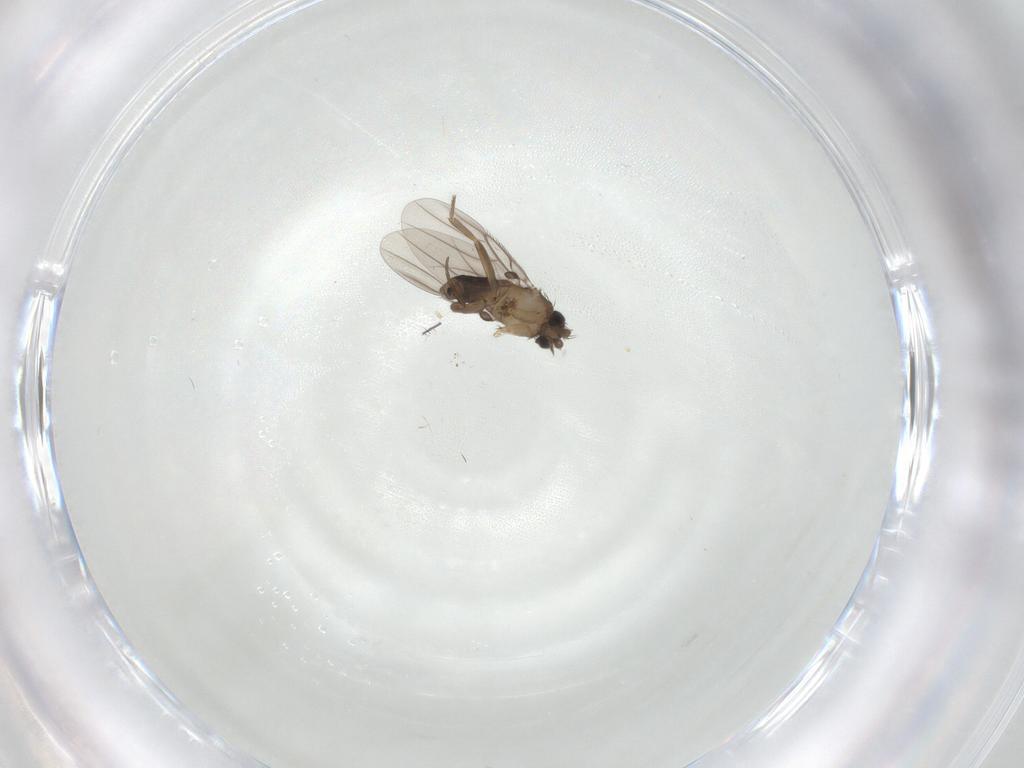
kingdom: Animalia
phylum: Arthropoda
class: Insecta
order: Diptera
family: Phoridae
